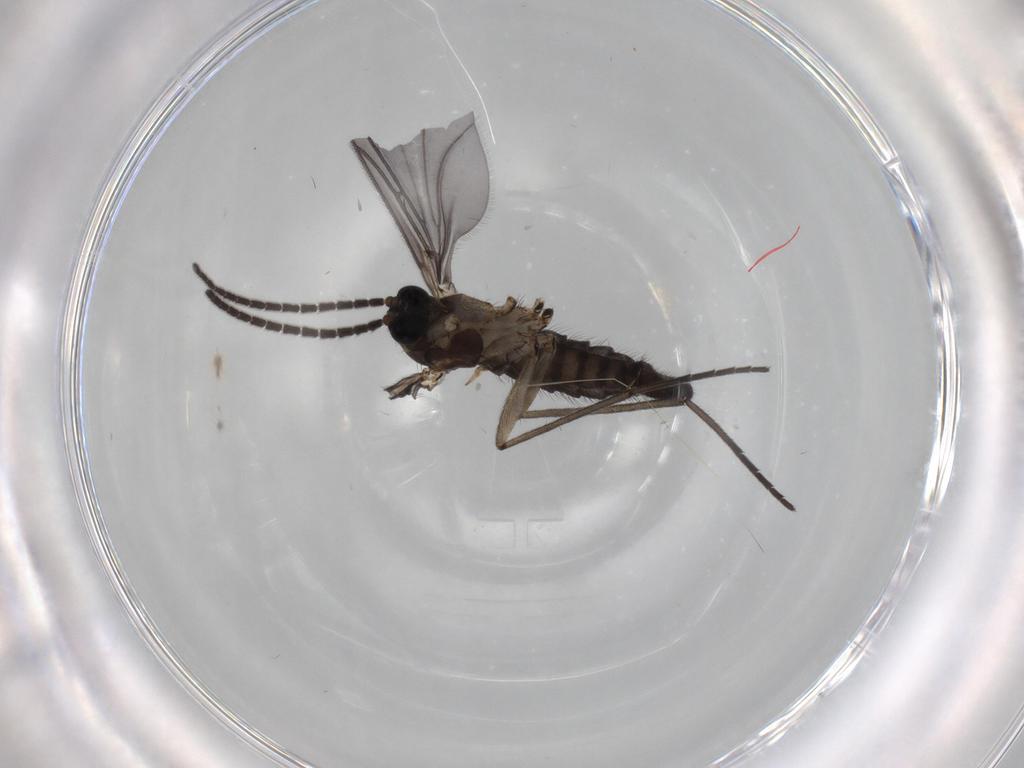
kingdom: Animalia
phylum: Arthropoda
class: Insecta
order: Diptera
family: Sciaridae
